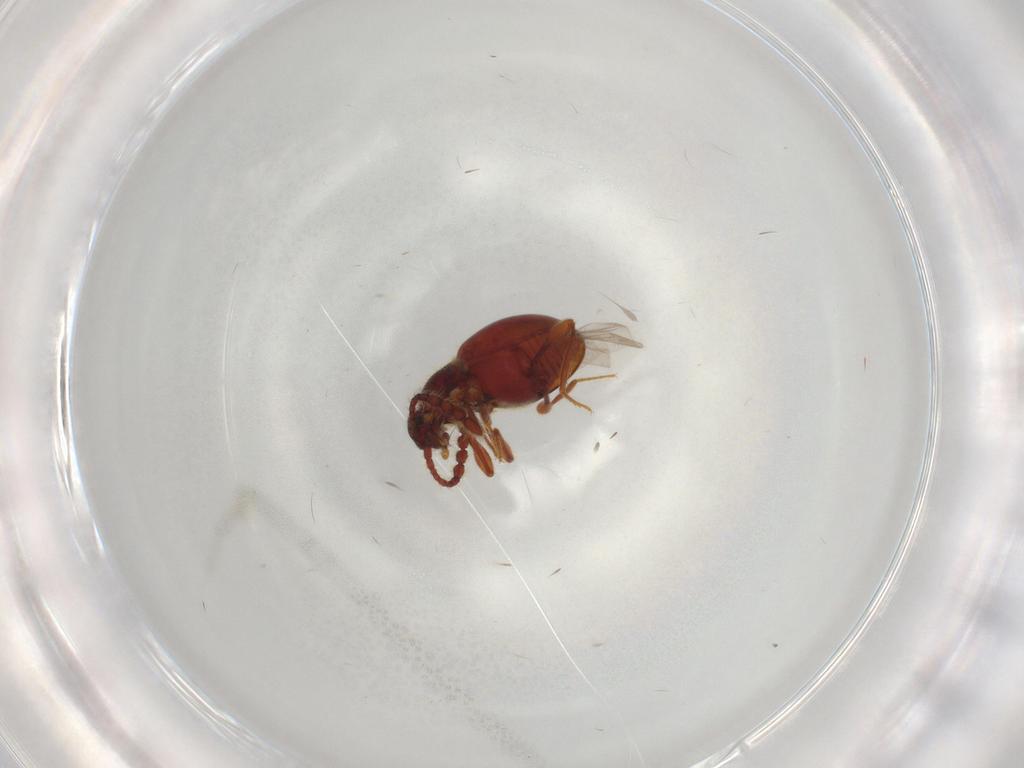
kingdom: Animalia
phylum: Arthropoda
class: Insecta
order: Coleoptera
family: Staphylinidae
